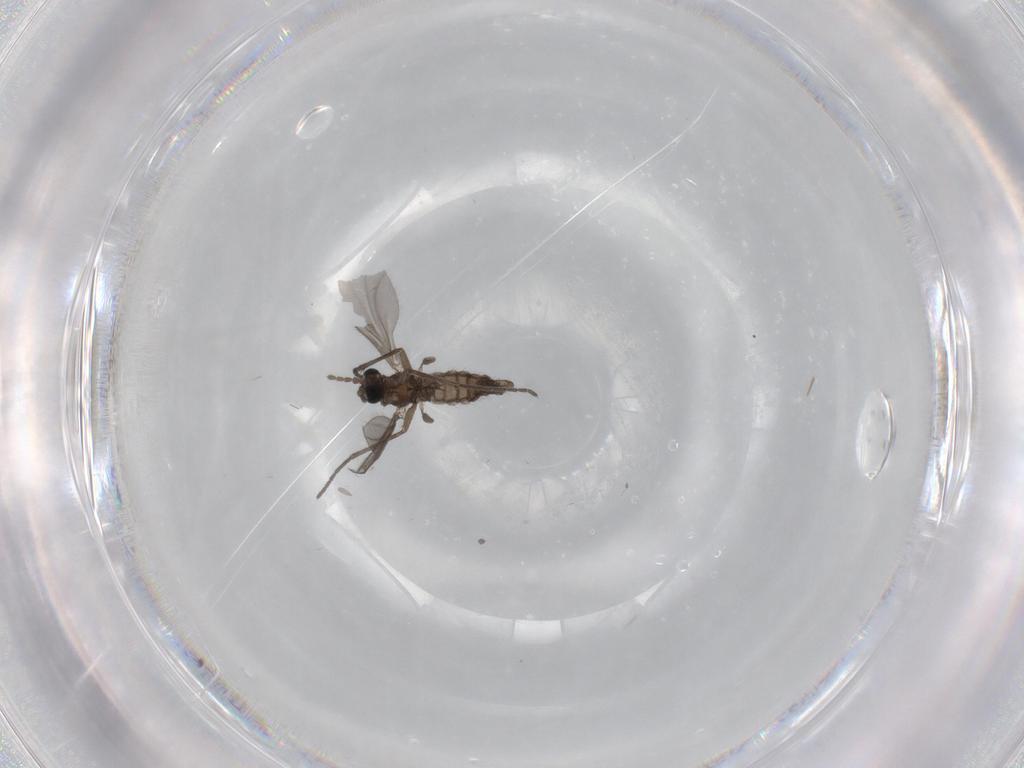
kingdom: Animalia
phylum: Arthropoda
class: Insecta
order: Diptera
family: Sciaridae
